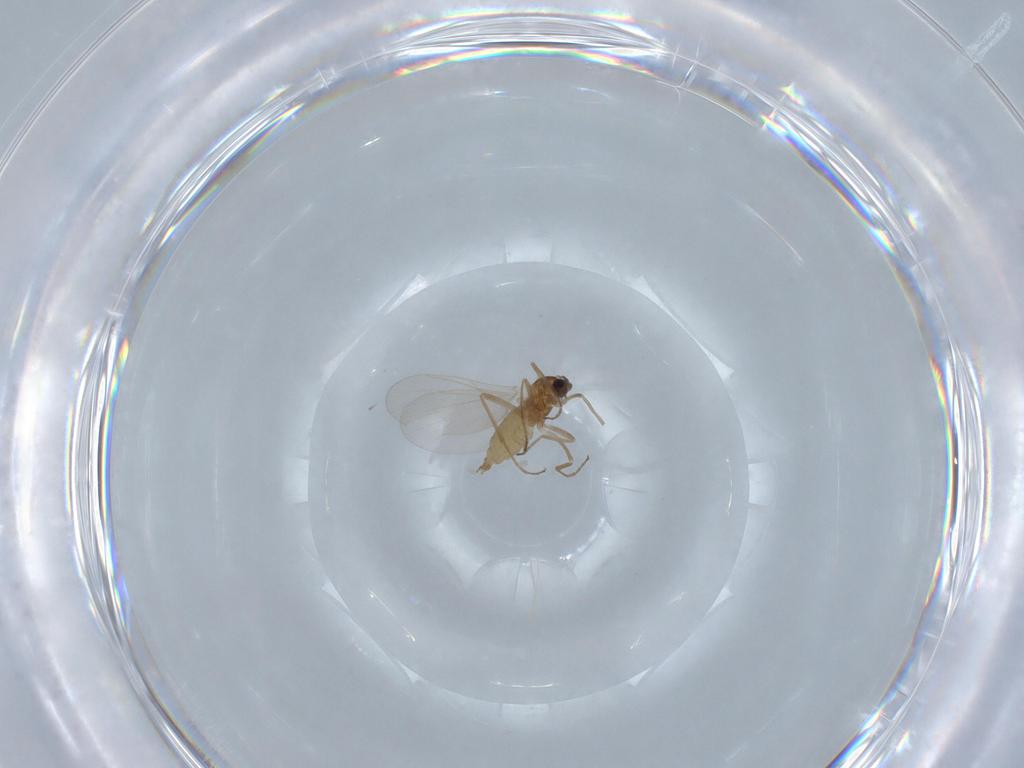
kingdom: Animalia
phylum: Arthropoda
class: Insecta
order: Diptera
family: Cecidomyiidae
